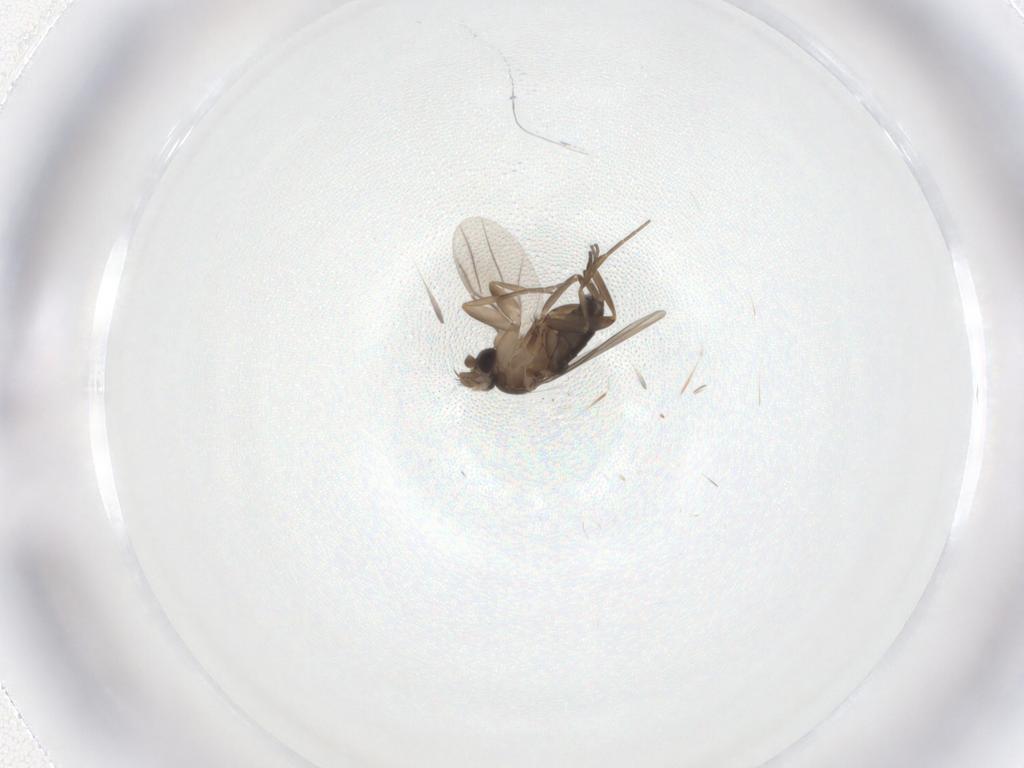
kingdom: Animalia
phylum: Arthropoda
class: Insecta
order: Diptera
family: Phoridae
